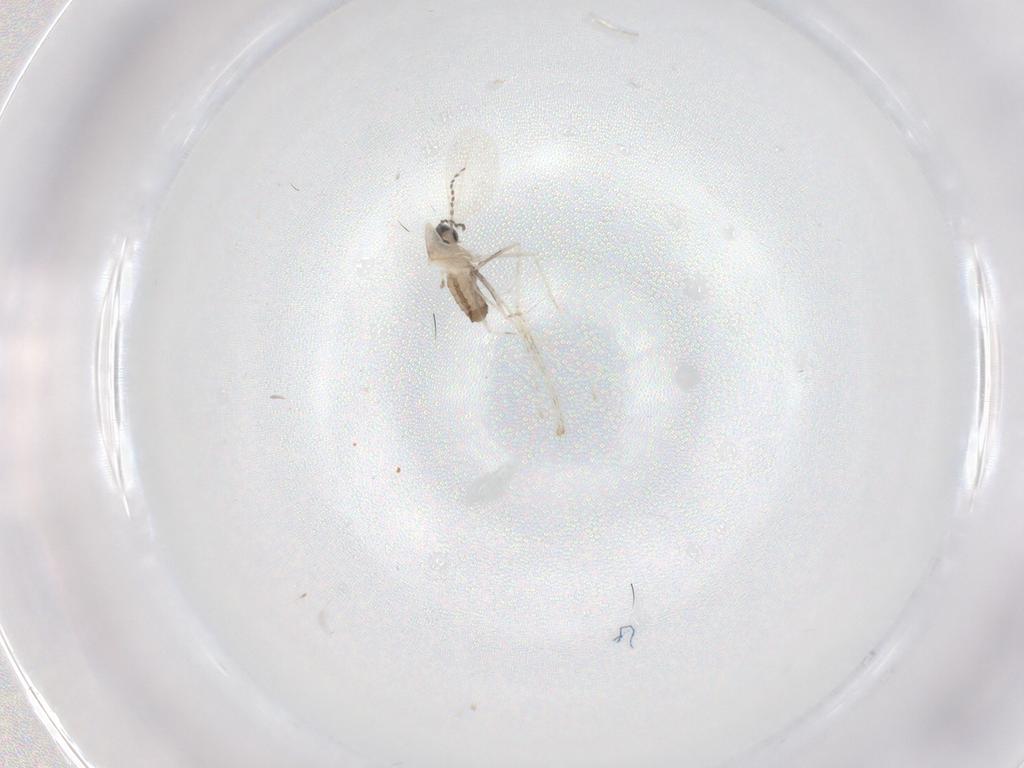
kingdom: Animalia
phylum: Arthropoda
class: Insecta
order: Diptera
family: Cecidomyiidae
